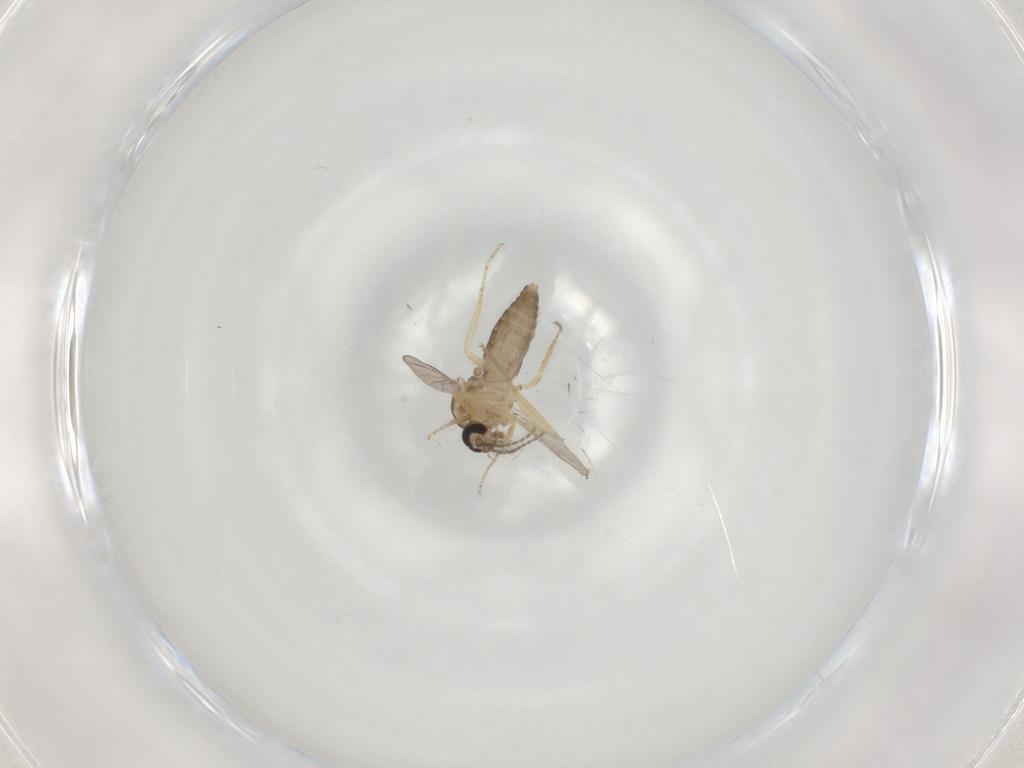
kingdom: Animalia
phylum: Arthropoda
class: Insecta
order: Diptera
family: Ceratopogonidae
